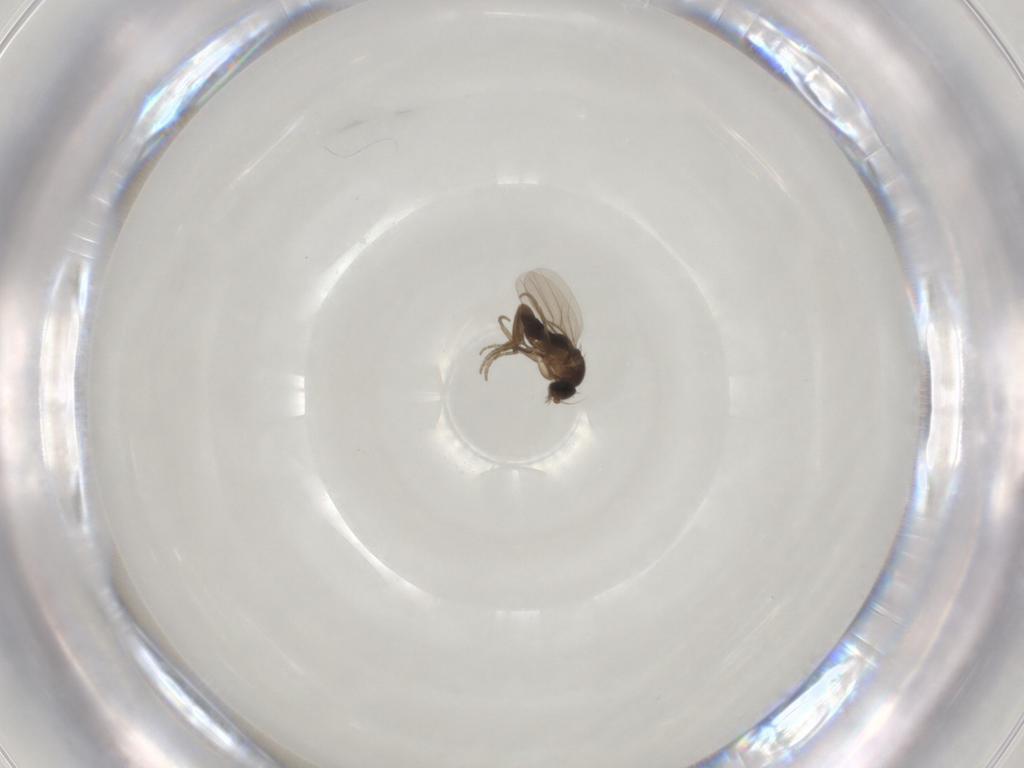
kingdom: Animalia
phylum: Arthropoda
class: Insecta
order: Diptera
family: Phoridae
